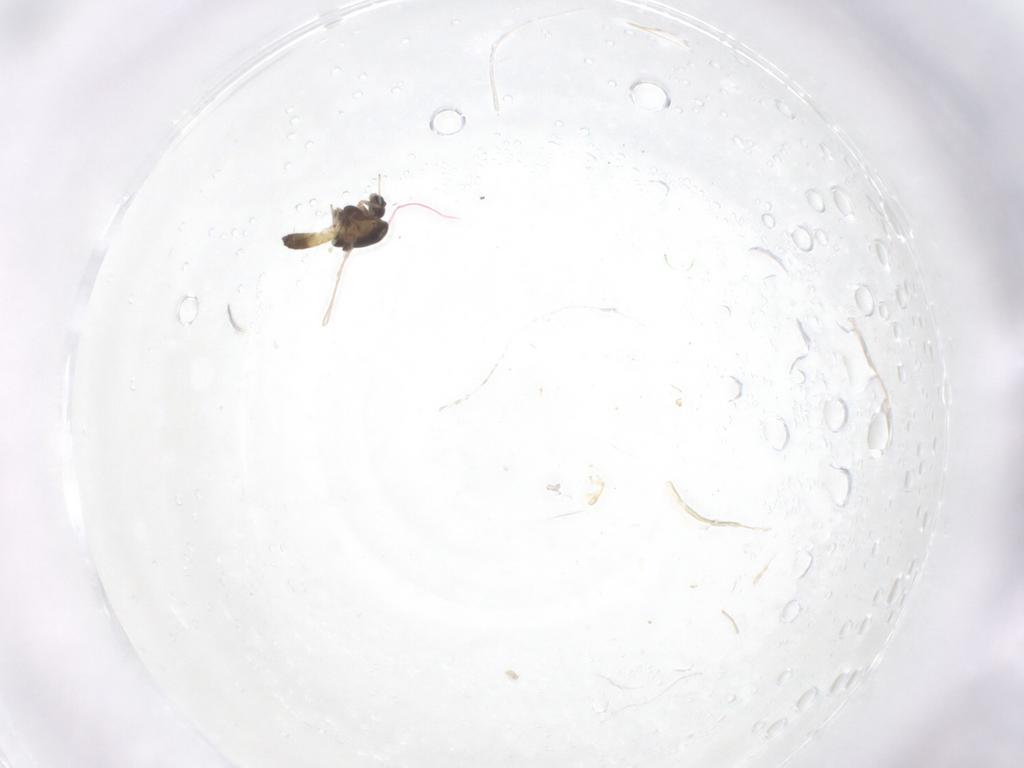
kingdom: Animalia
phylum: Arthropoda
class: Insecta
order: Diptera
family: Chironomidae
